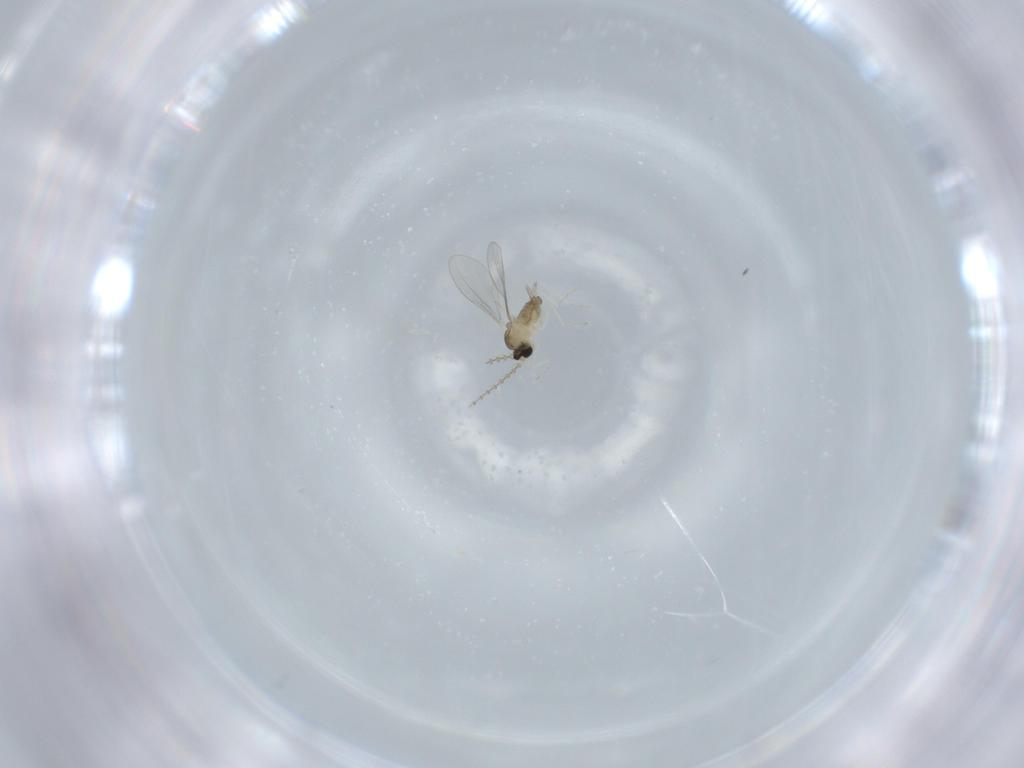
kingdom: Animalia
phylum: Arthropoda
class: Insecta
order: Diptera
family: Cecidomyiidae
